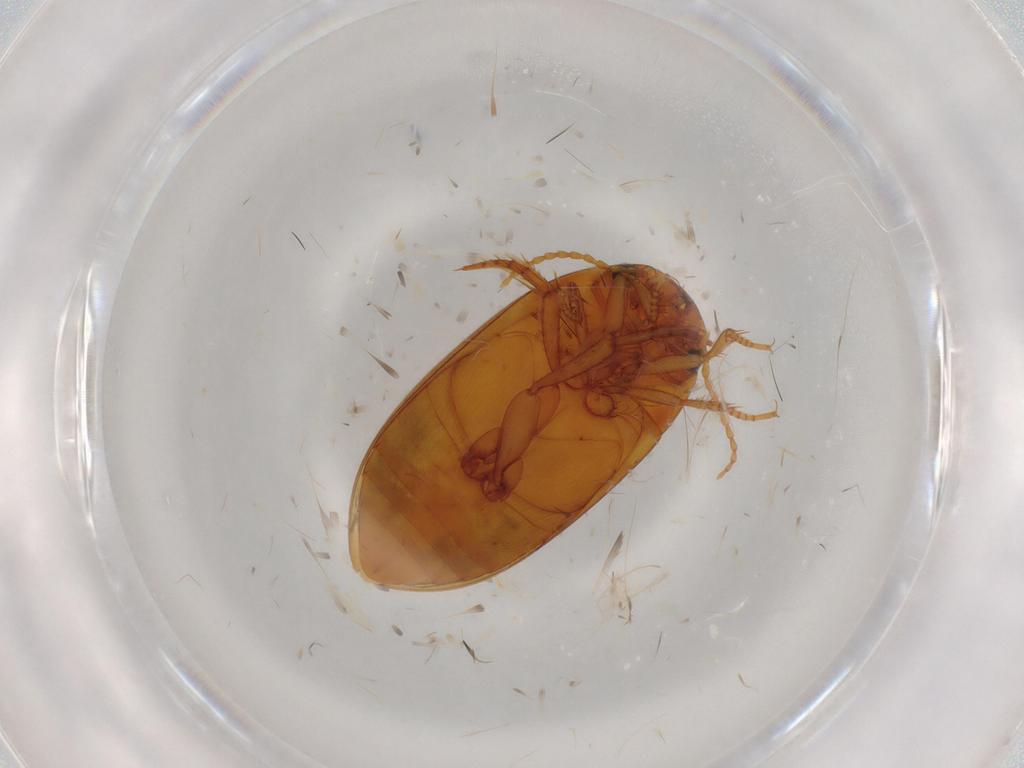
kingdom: Animalia
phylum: Arthropoda
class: Insecta
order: Coleoptera
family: Dytiscidae
